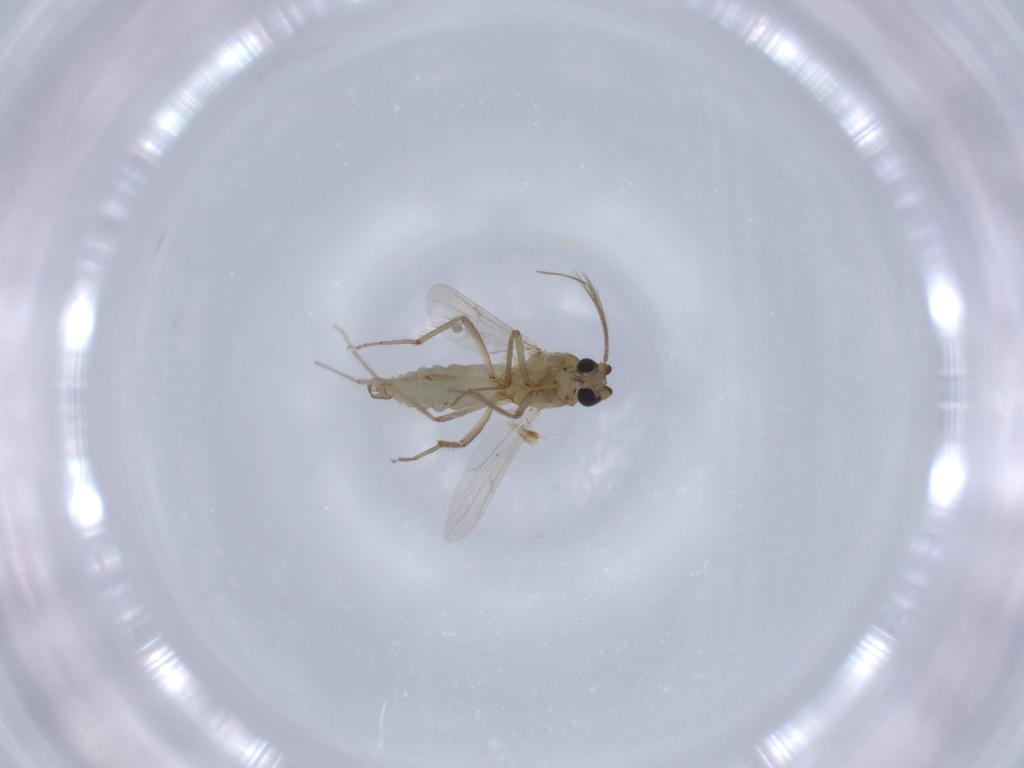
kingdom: Animalia
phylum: Arthropoda
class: Insecta
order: Diptera
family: Ceratopogonidae
